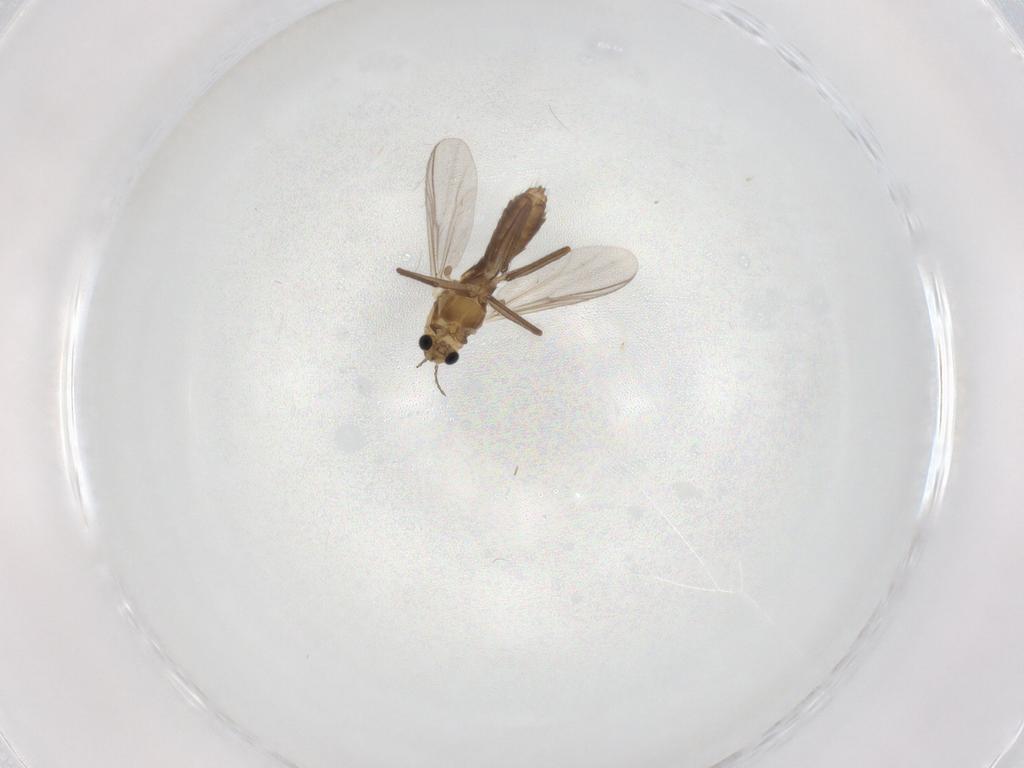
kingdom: Animalia
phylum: Arthropoda
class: Insecta
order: Diptera
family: Chironomidae
